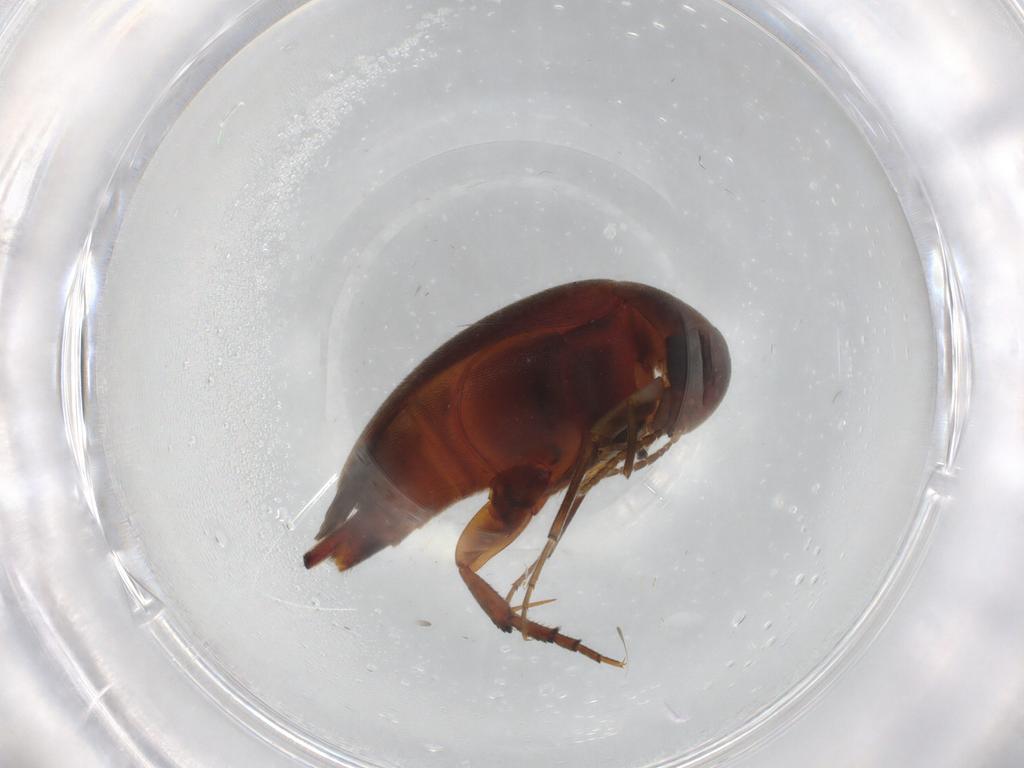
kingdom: Animalia
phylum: Arthropoda
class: Insecta
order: Coleoptera
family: Mordellidae
